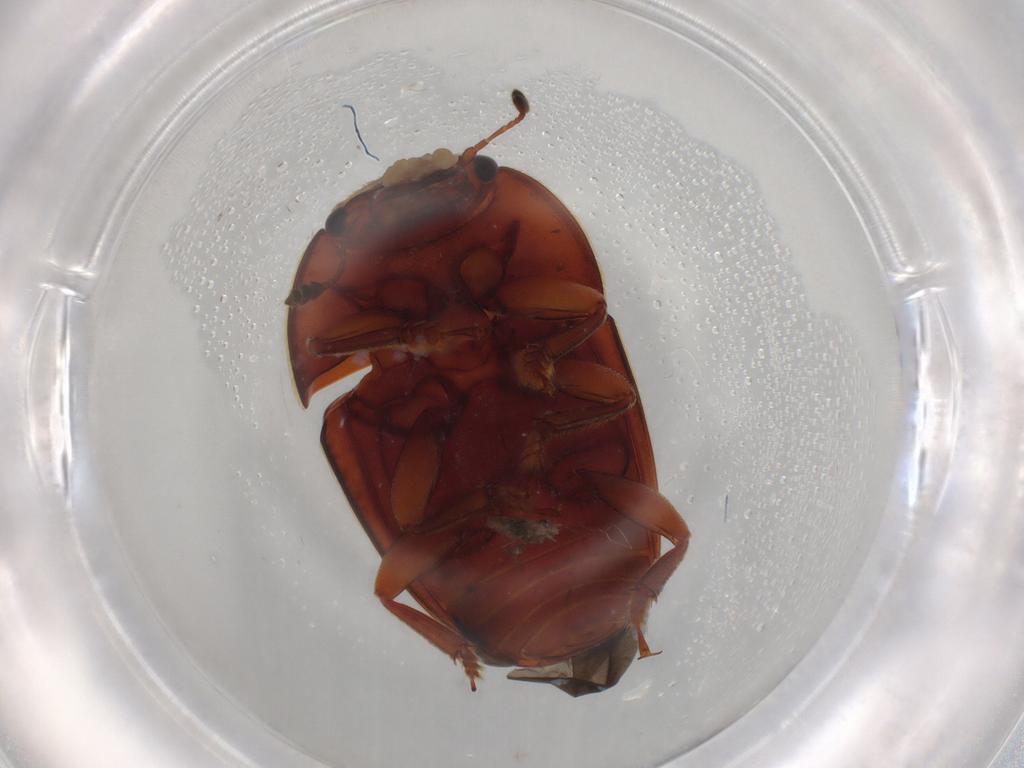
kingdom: Animalia
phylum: Arthropoda
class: Insecta
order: Coleoptera
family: Nitidulidae
